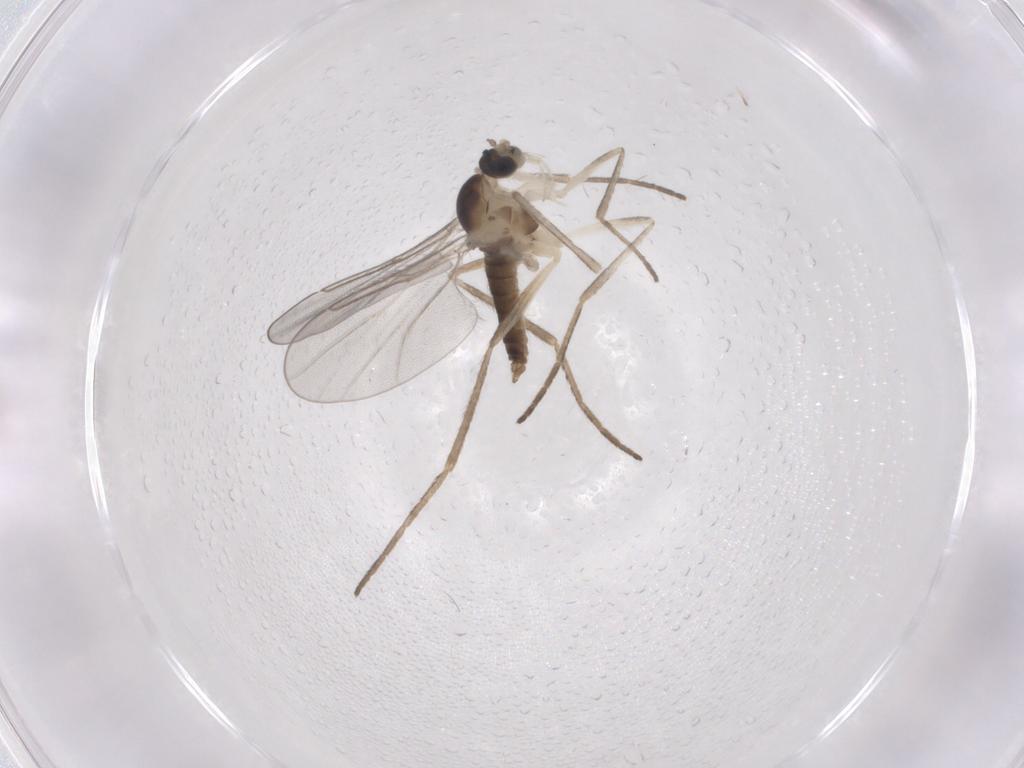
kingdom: Animalia
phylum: Arthropoda
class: Insecta
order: Diptera
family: Cecidomyiidae
